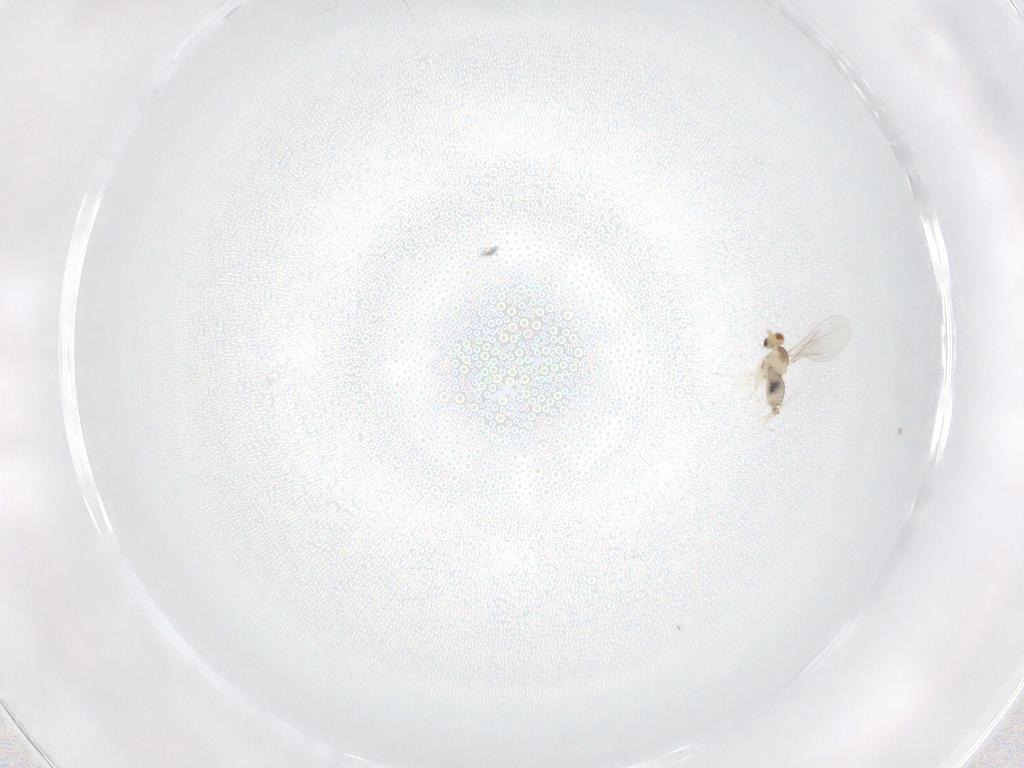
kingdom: Animalia
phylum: Arthropoda
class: Insecta
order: Diptera
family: Cecidomyiidae
